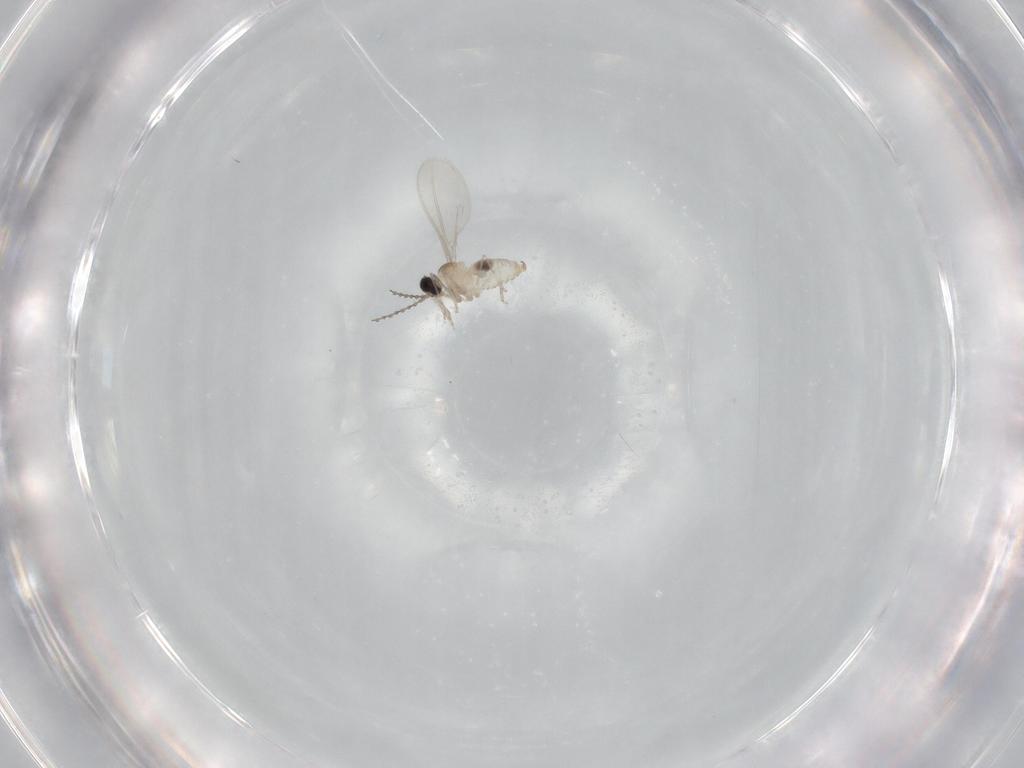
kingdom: Animalia
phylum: Arthropoda
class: Insecta
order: Diptera
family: Cecidomyiidae
